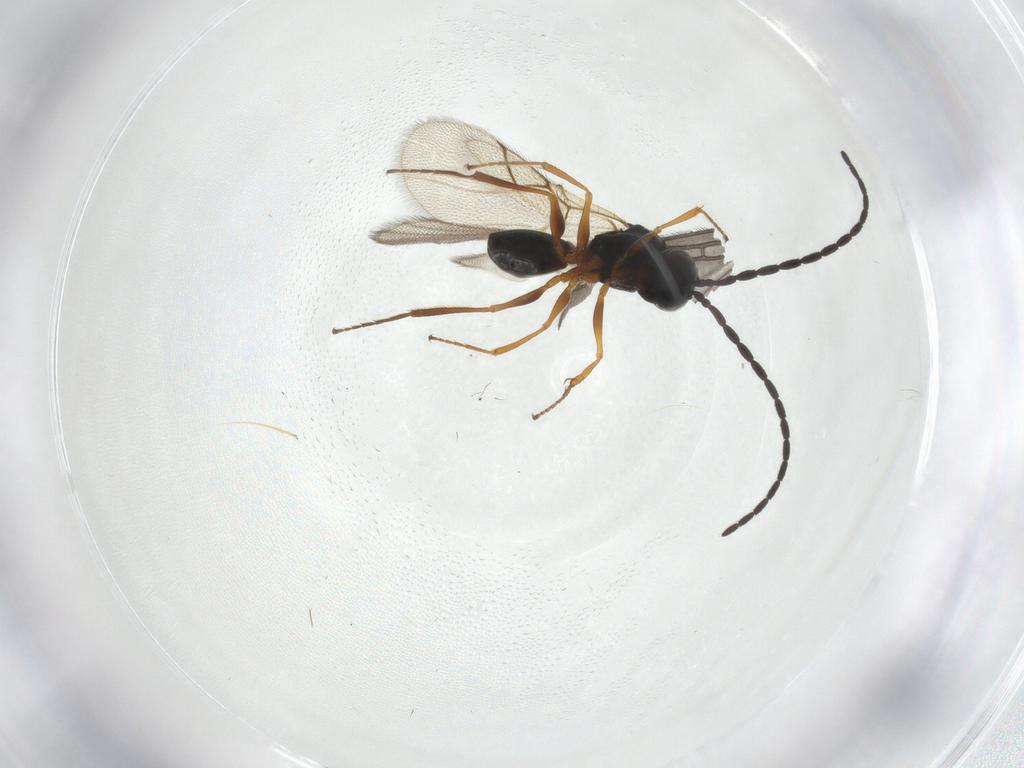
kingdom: Animalia
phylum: Arthropoda
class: Insecta
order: Hymenoptera
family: Figitidae
